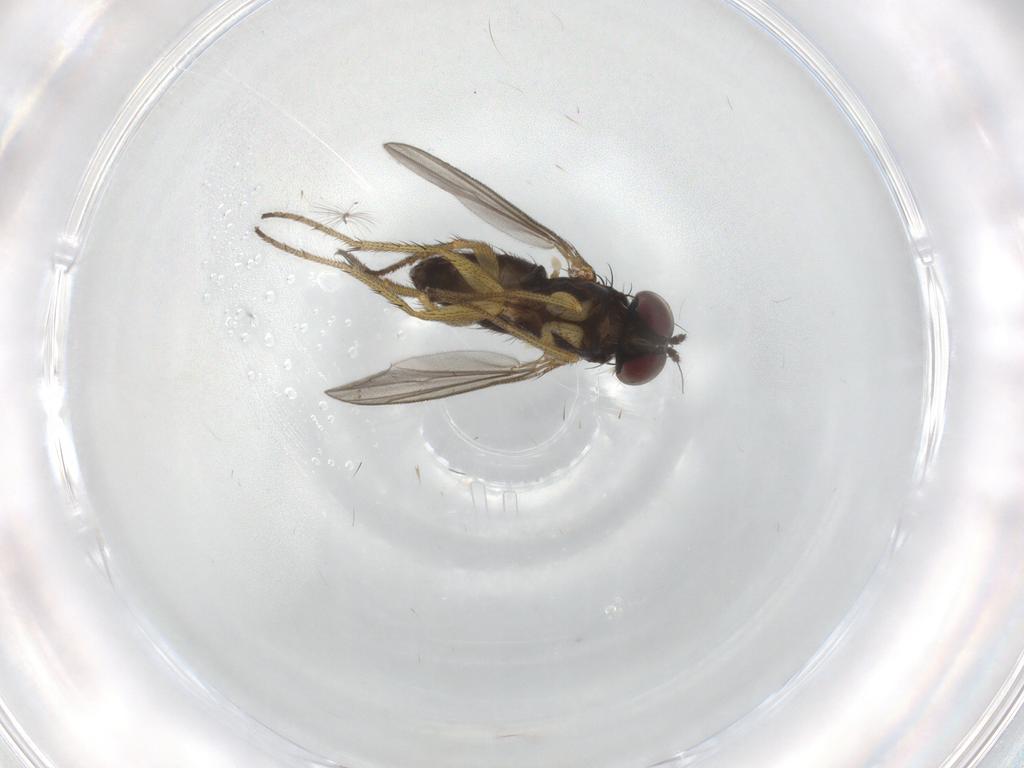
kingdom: Animalia
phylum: Arthropoda
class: Insecta
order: Diptera
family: Chironomidae
